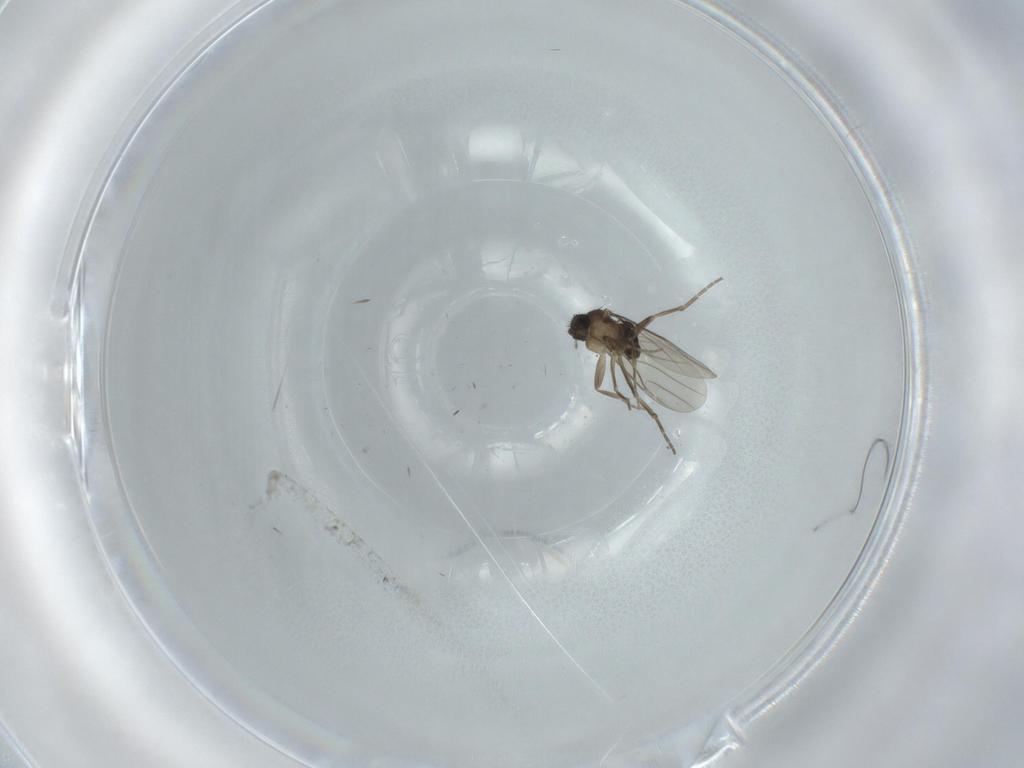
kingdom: Animalia
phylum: Arthropoda
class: Insecta
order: Diptera
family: Phoridae
